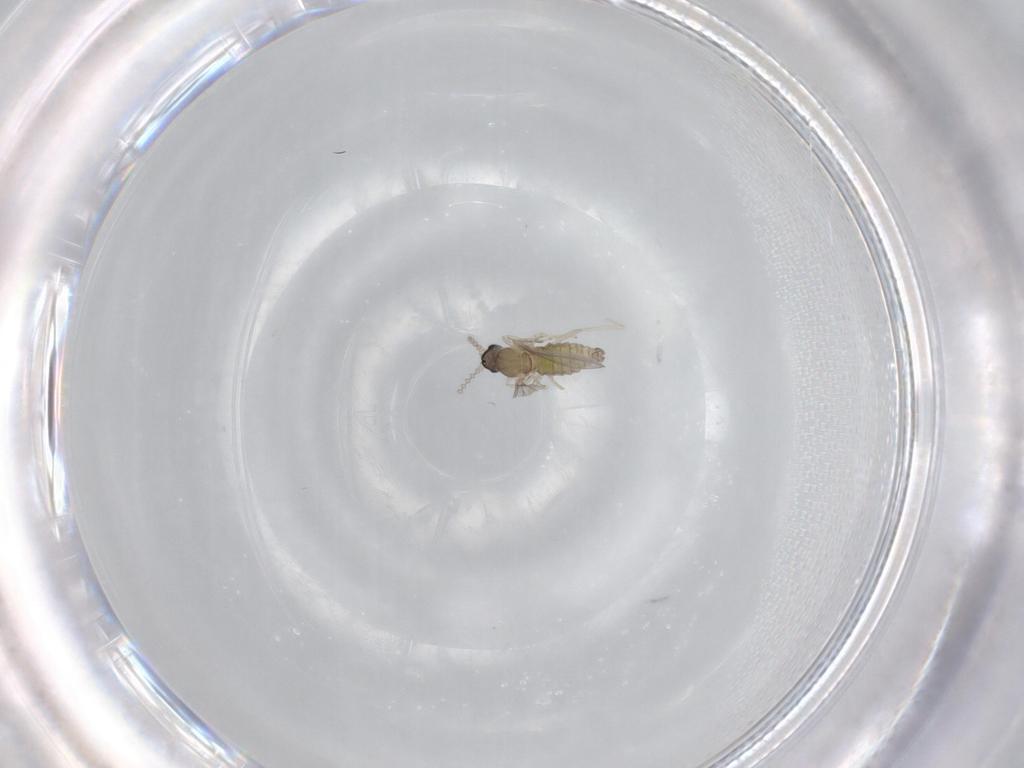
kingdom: Animalia
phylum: Arthropoda
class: Insecta
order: Diptera
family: Cecidomyiidae
